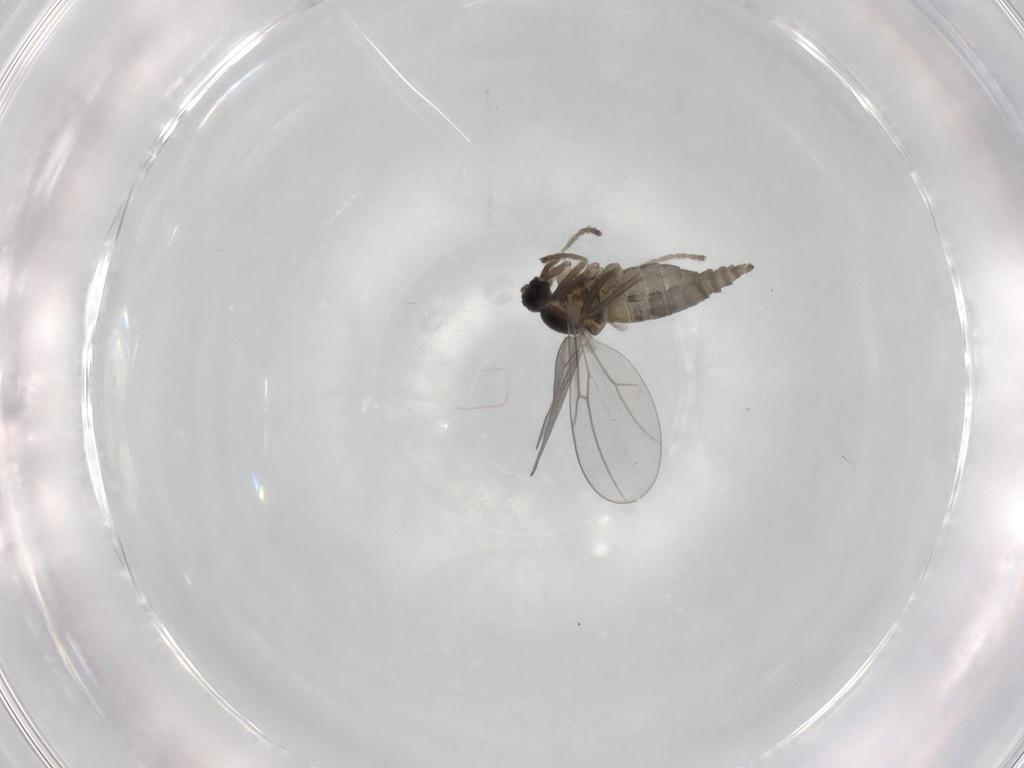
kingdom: Animalia
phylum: Arthropoda
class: Insecta
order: Diptera
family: Cecidomyiidae
